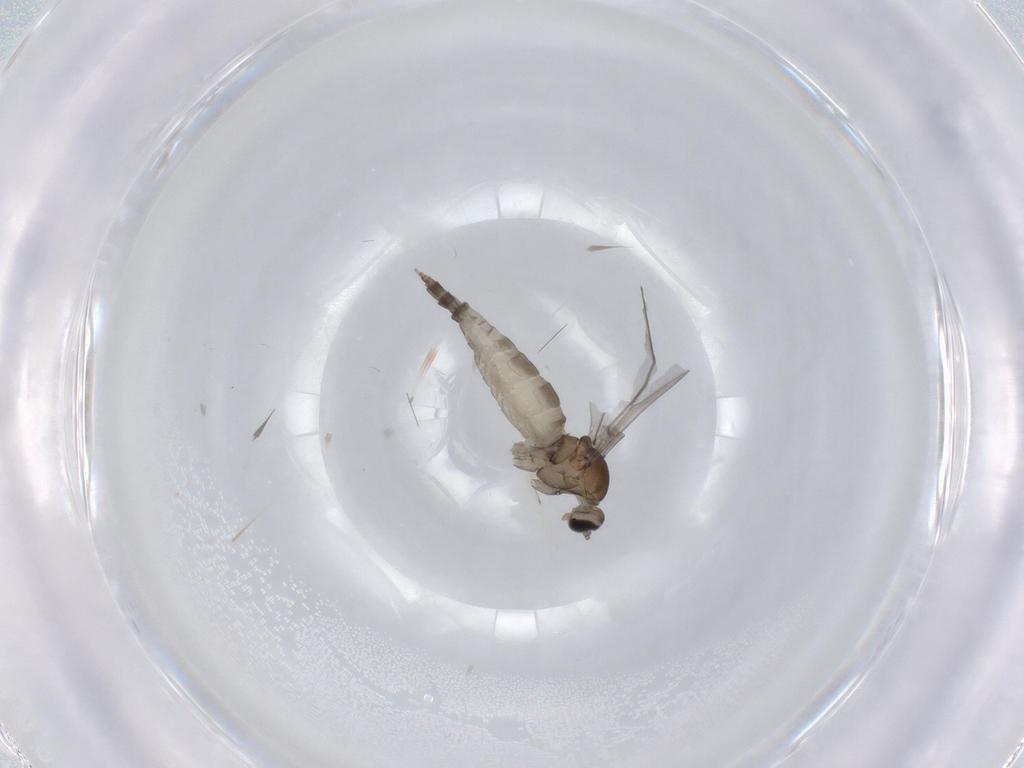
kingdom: Animalia
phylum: Arthropoda
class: Insecta
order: Diptera
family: Cecidomyiidae
